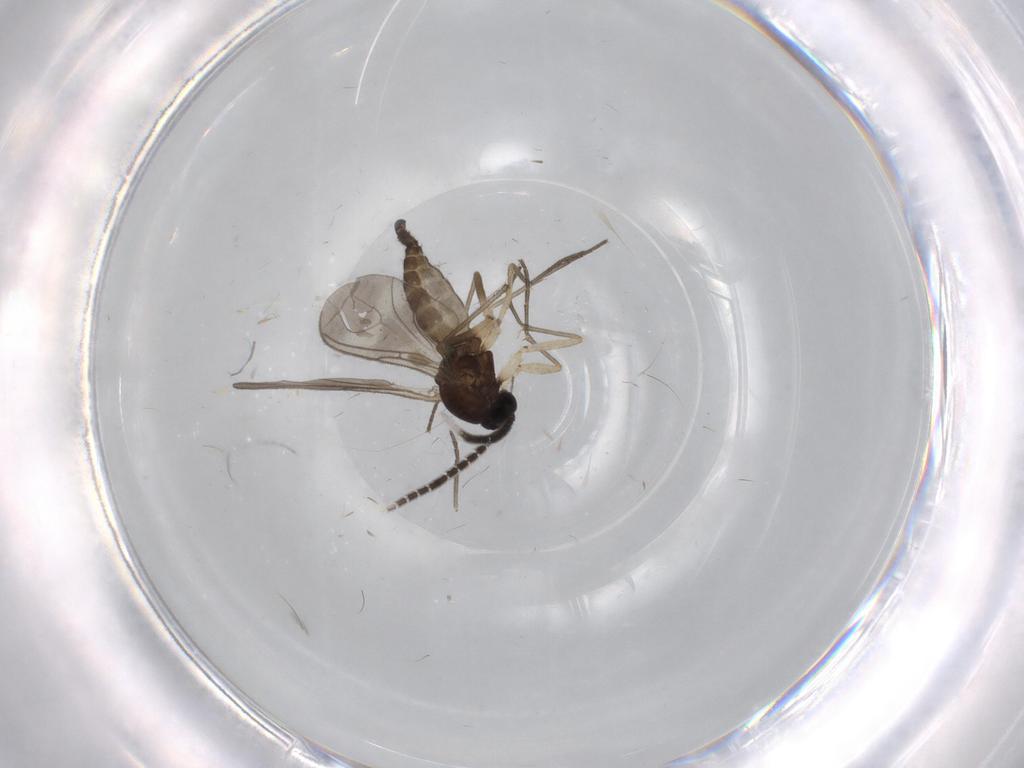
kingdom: Animalia
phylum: Arthropoda
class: Insecta
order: Diptera
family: Sciaridae
